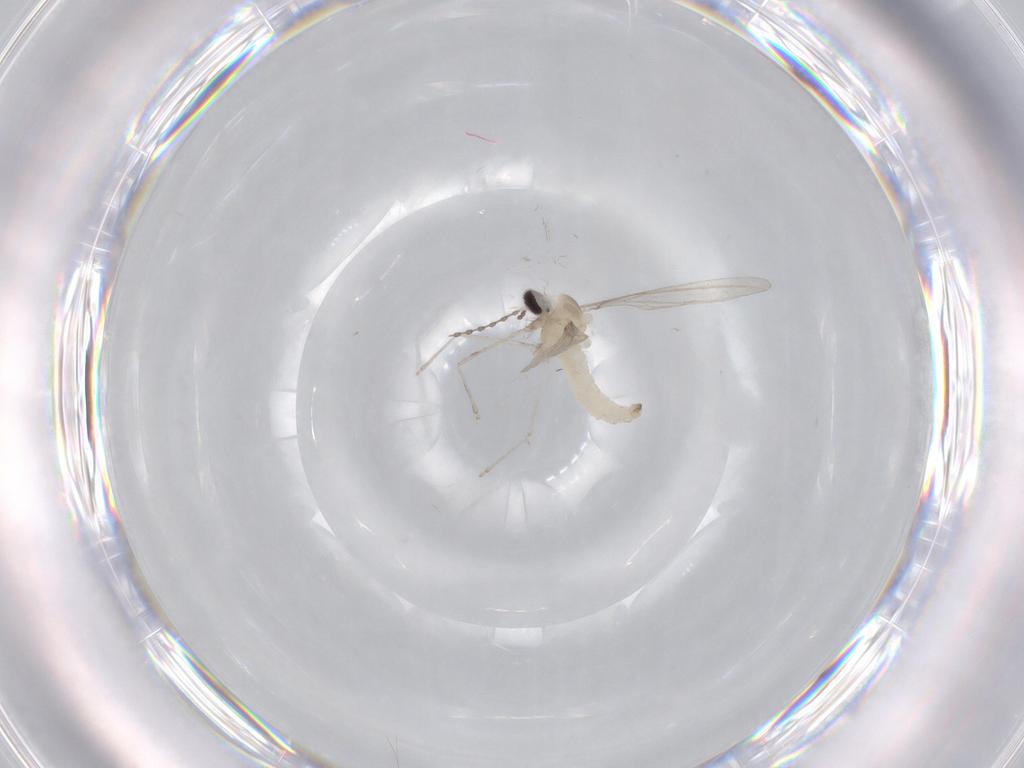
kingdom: Animalia
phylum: Arthropoda
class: Insecta
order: Diptera
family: Cecidomyiidae
